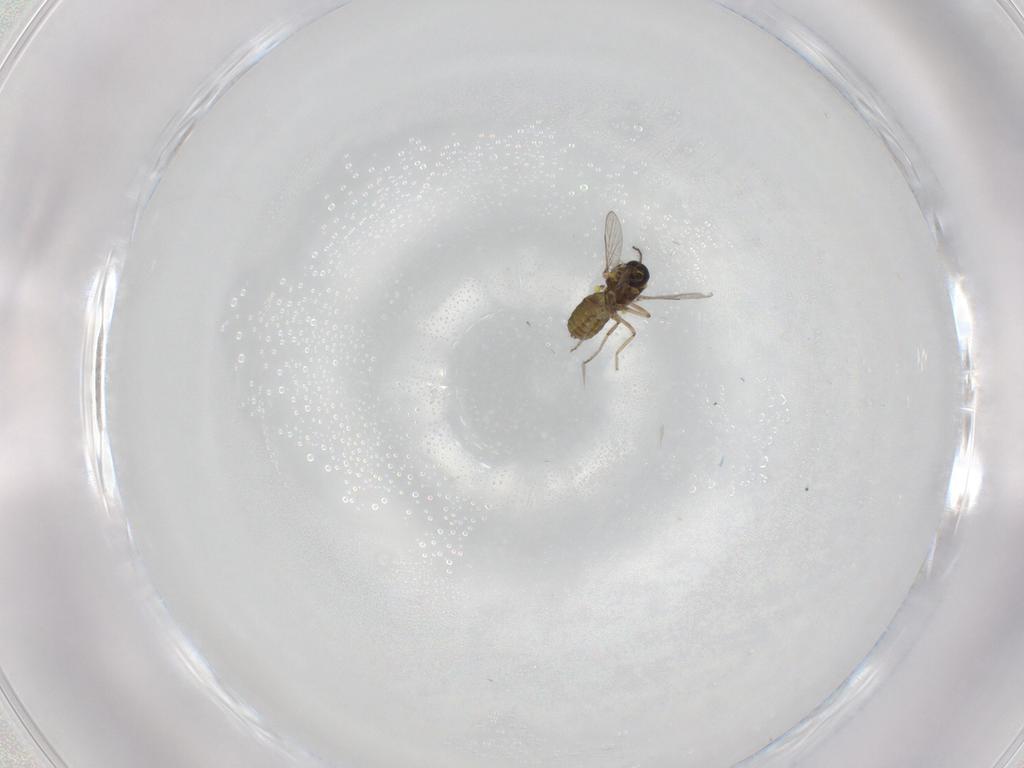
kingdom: Animalia
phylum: Arthropoda
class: Insecta
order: Diptera
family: Ceratopogonidae
